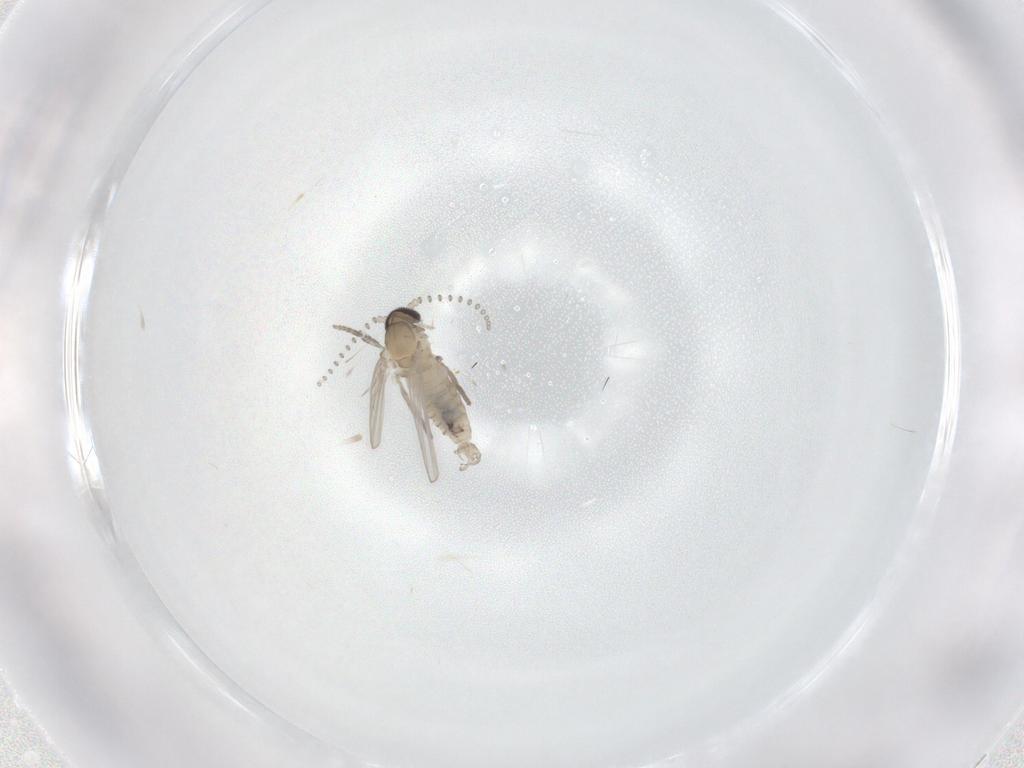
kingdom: Animalia
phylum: Arthropoda
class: Insecta
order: Diptera
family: Psychodidae
